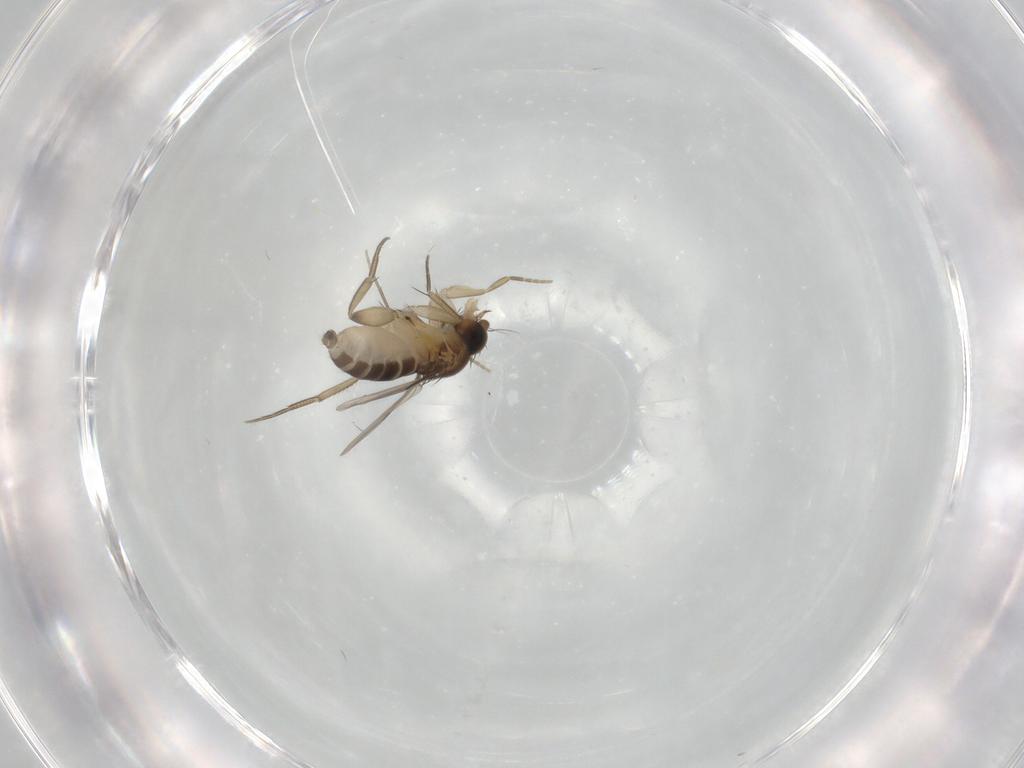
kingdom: Animalia
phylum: Arthropoda
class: Insecta
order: Diptera
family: Phoridae
